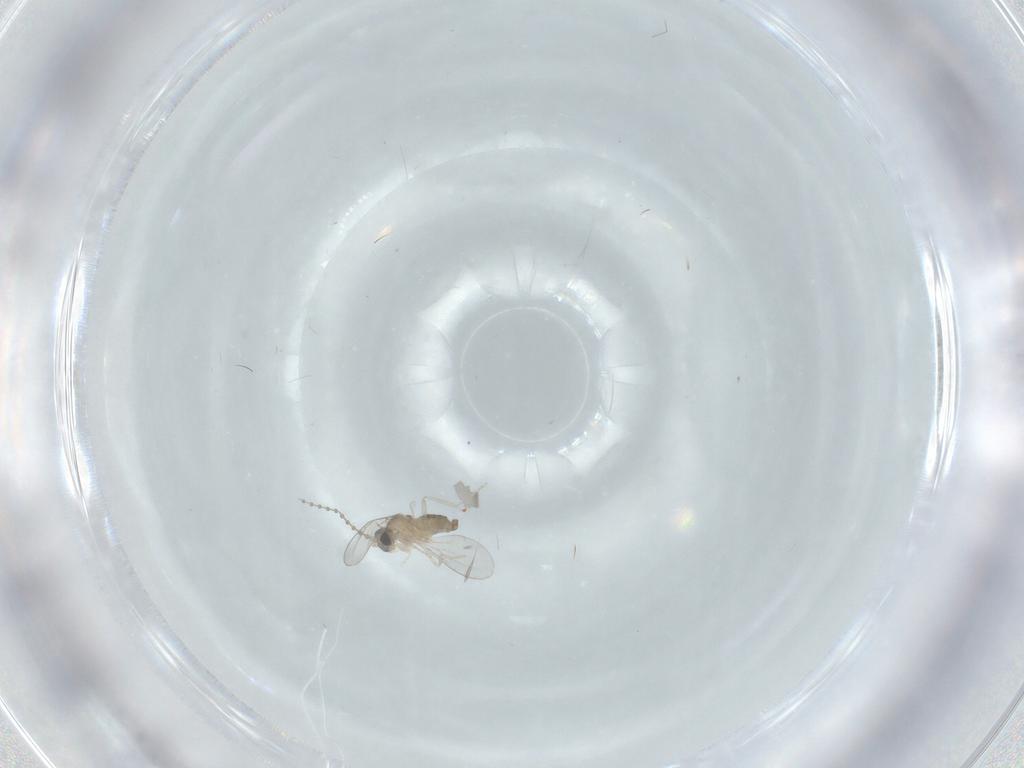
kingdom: Animalia
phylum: Arthropoda
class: Insecta
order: Diptera
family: Cecidomyiidae
